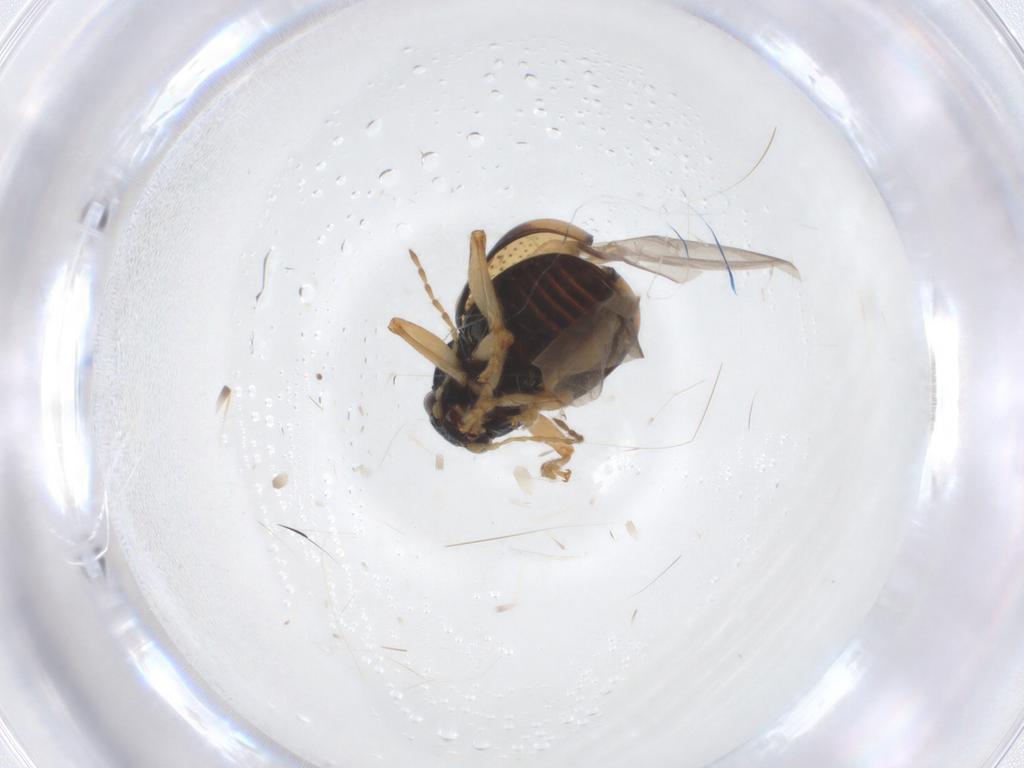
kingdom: Animalia
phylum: Arthropoda
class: Insecta
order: Coleoptera
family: Chrysomelidae
